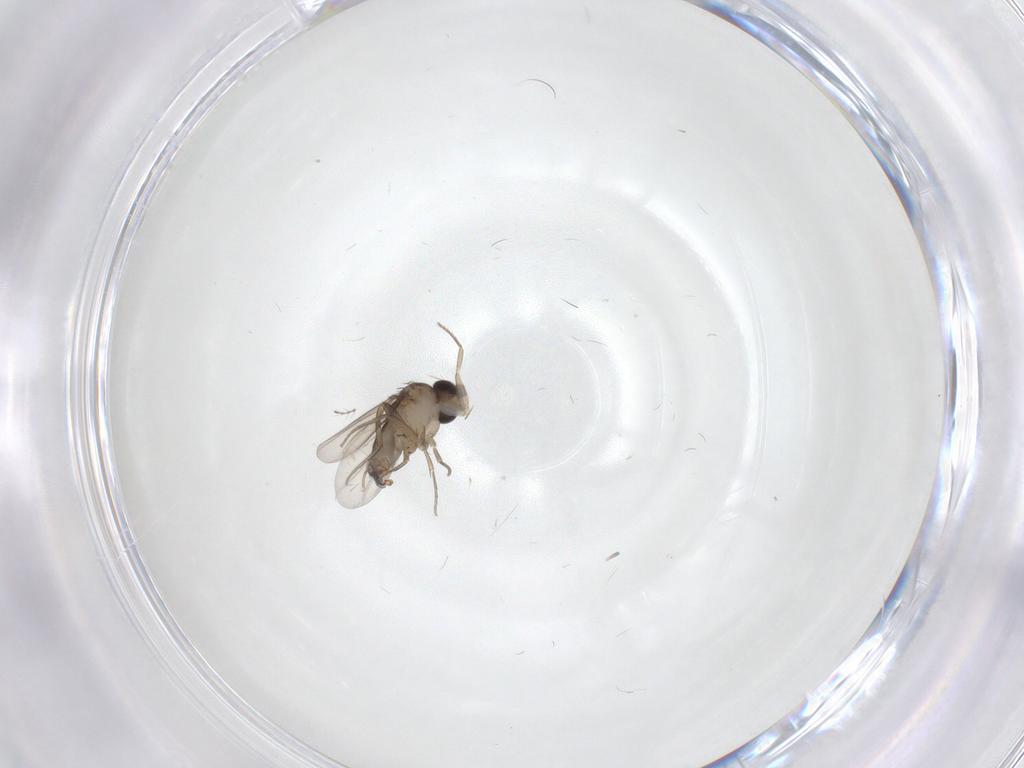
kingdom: Animalia
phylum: Arthropoda
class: Insecta
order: Diptera
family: Phoridae
